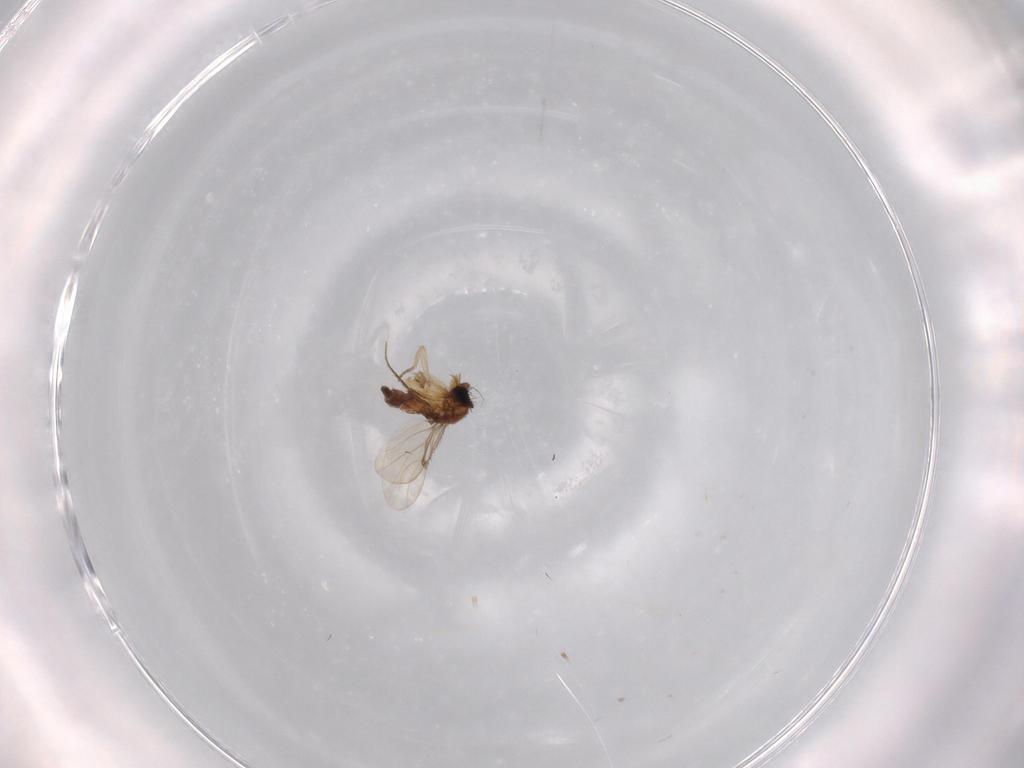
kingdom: Animalia
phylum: Arthropoda
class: Insecta
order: Diptera
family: Phoridae
